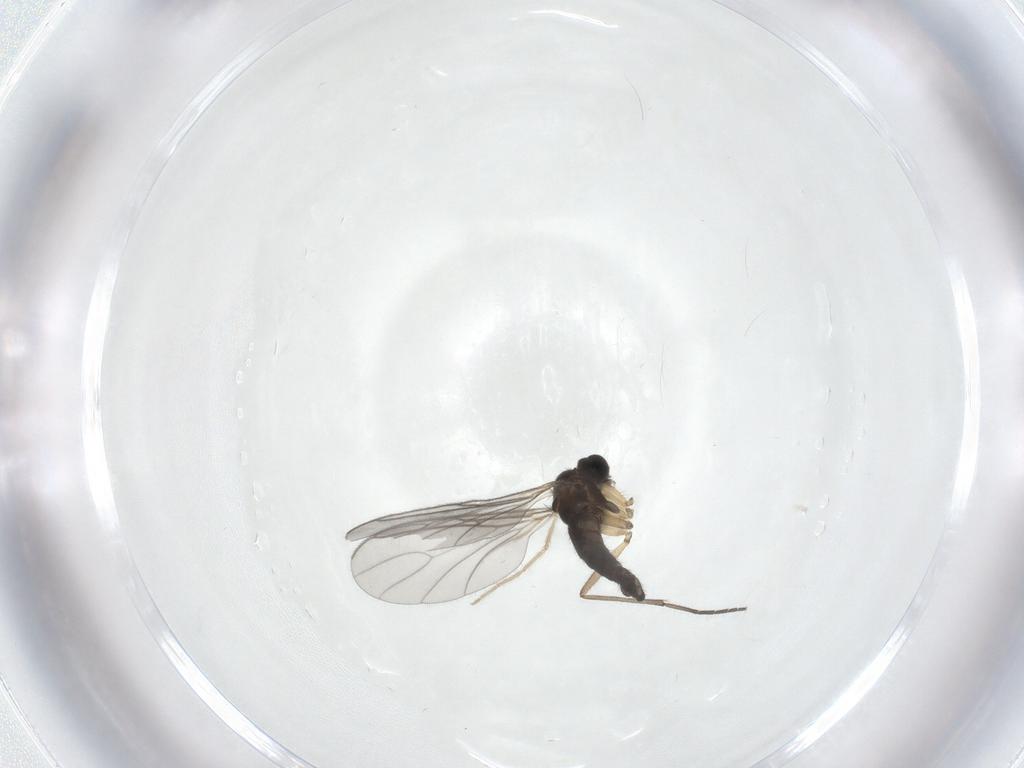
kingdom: Animalia
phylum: Arthropoda
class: Insecta
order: Diptera
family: Sciaridae
